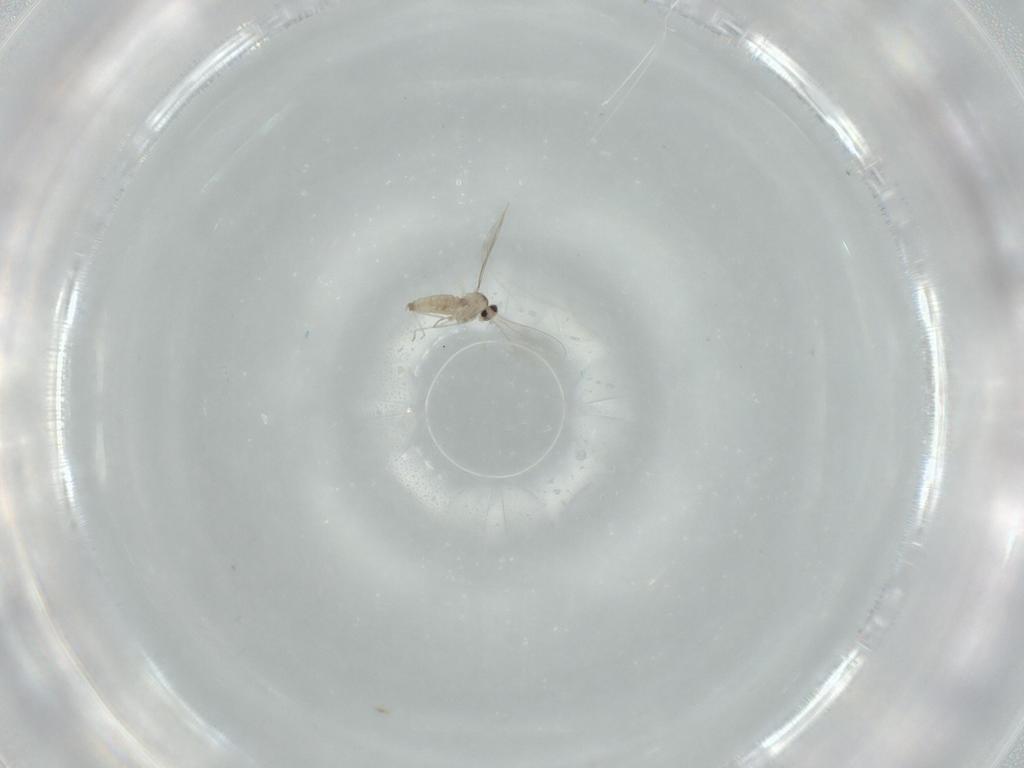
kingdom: Animalia
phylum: Arthropoda
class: Insecta
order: Diptera
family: Cecidomyiidae
